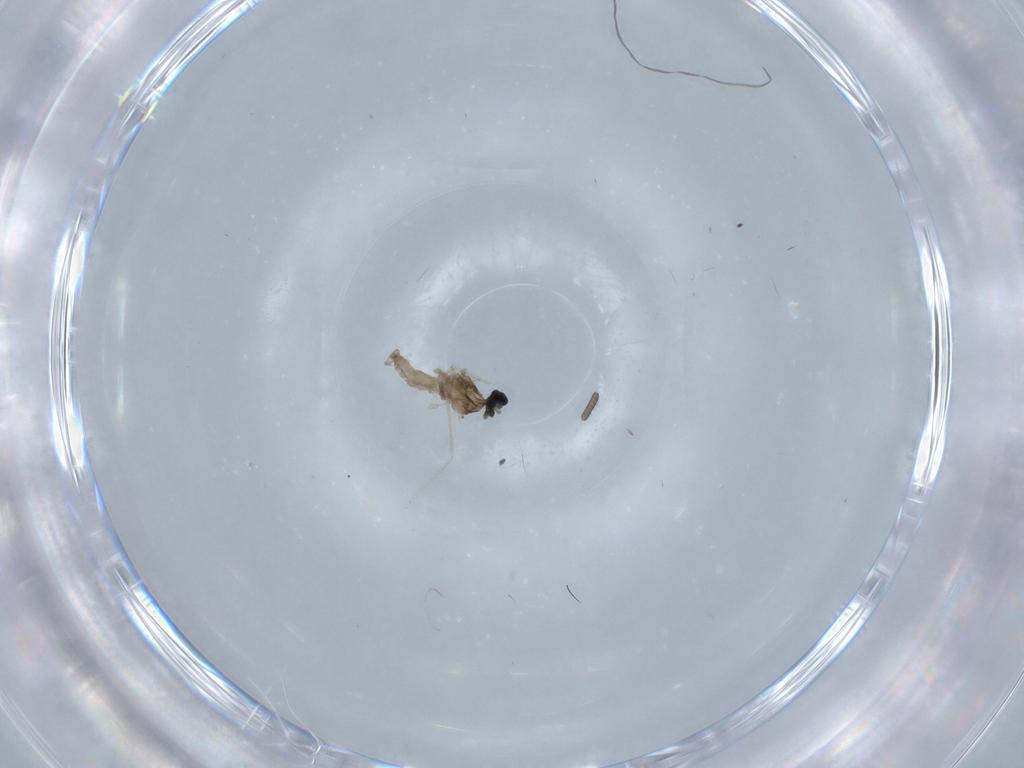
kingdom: Animalia
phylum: Arthropoda
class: Insecta
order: Diptera
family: Cecidomyiidae
